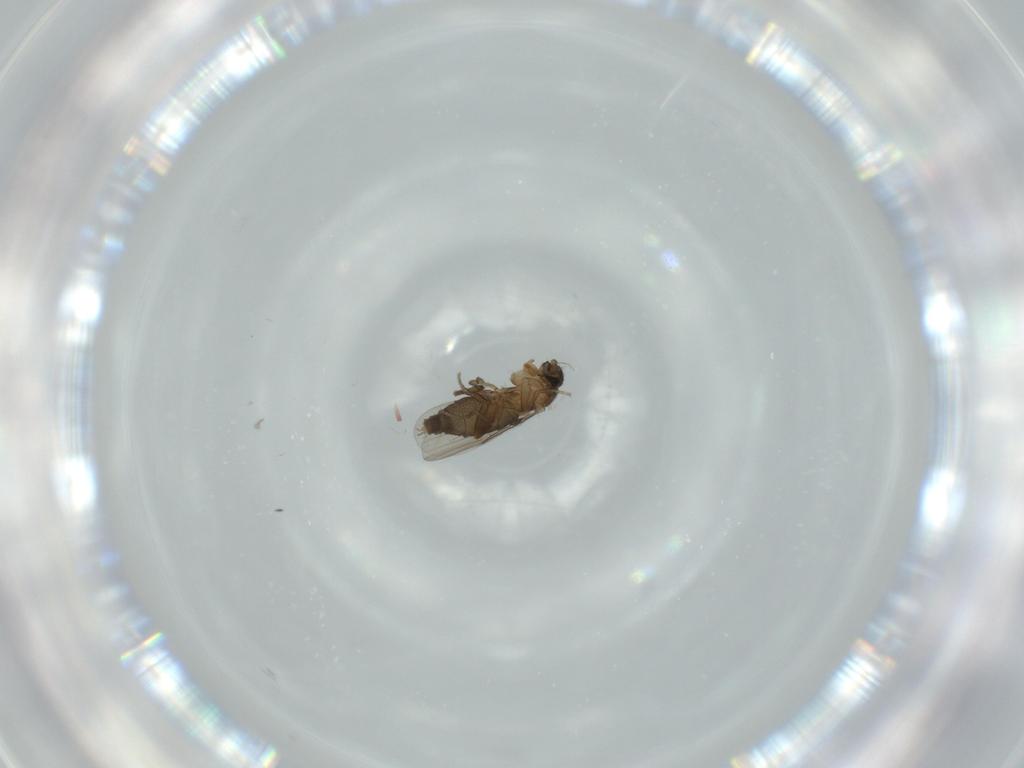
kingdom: Animalia
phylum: Arthropoda
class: Insecta
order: Diptera
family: Phoridae
